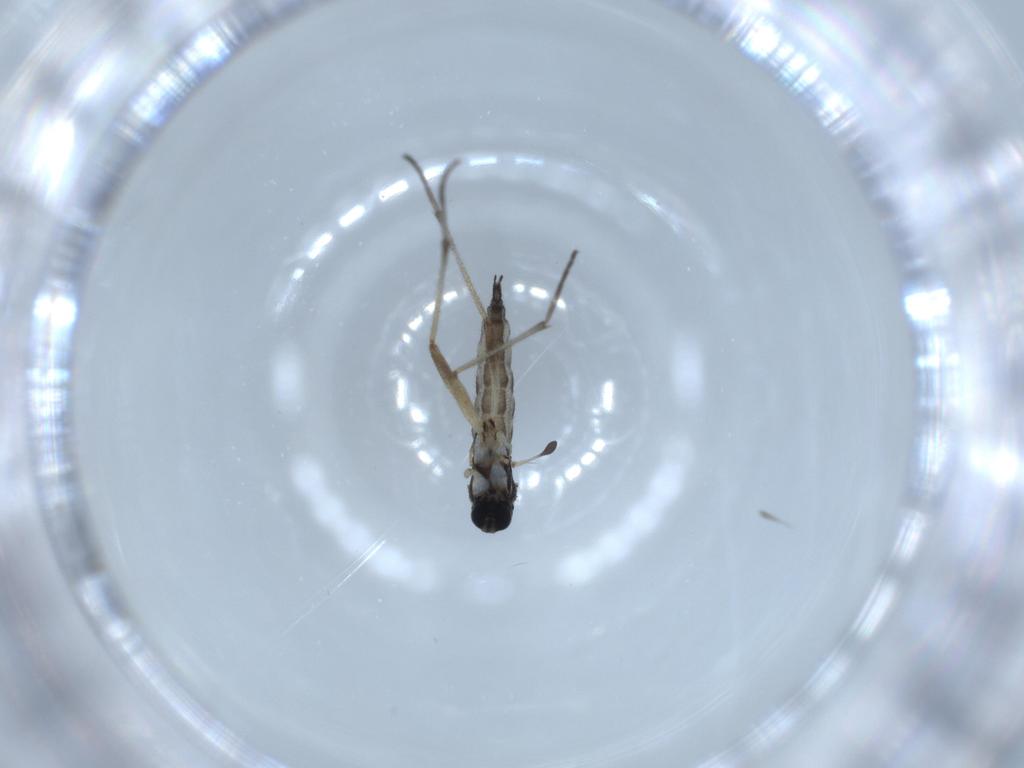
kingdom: Animalia
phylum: Arthropoda
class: Insecta
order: Diptera
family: Sciaridae
